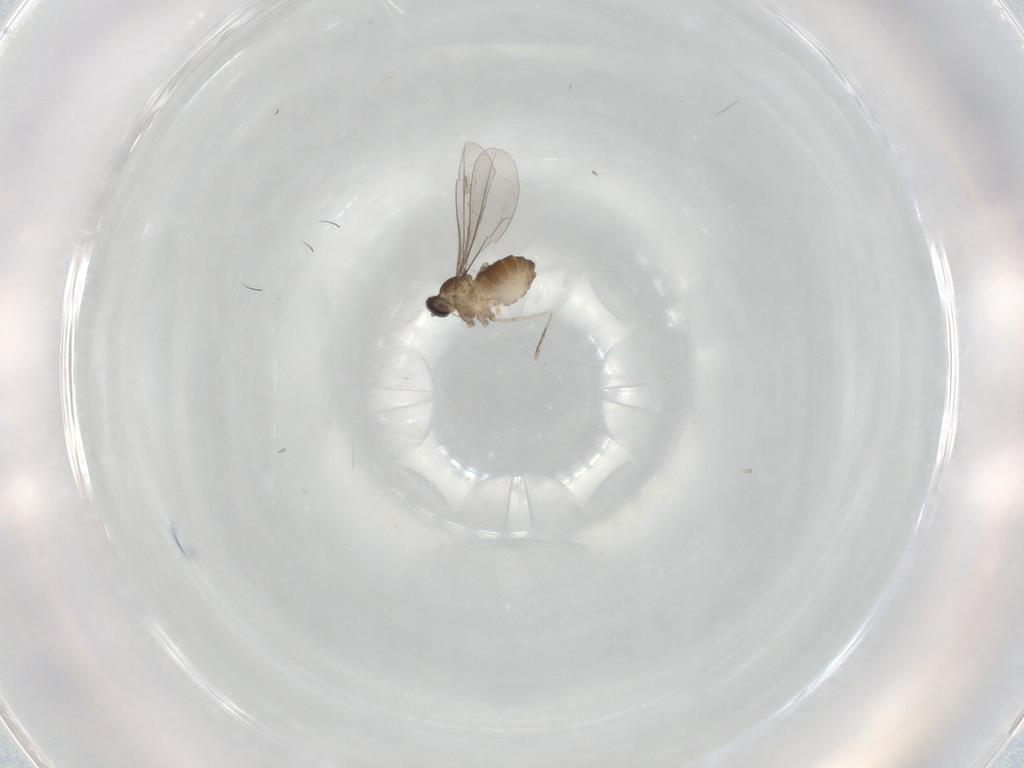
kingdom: Animalia
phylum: Arthropoda
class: Insecta
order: Diptera
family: Cecidomyiidae
